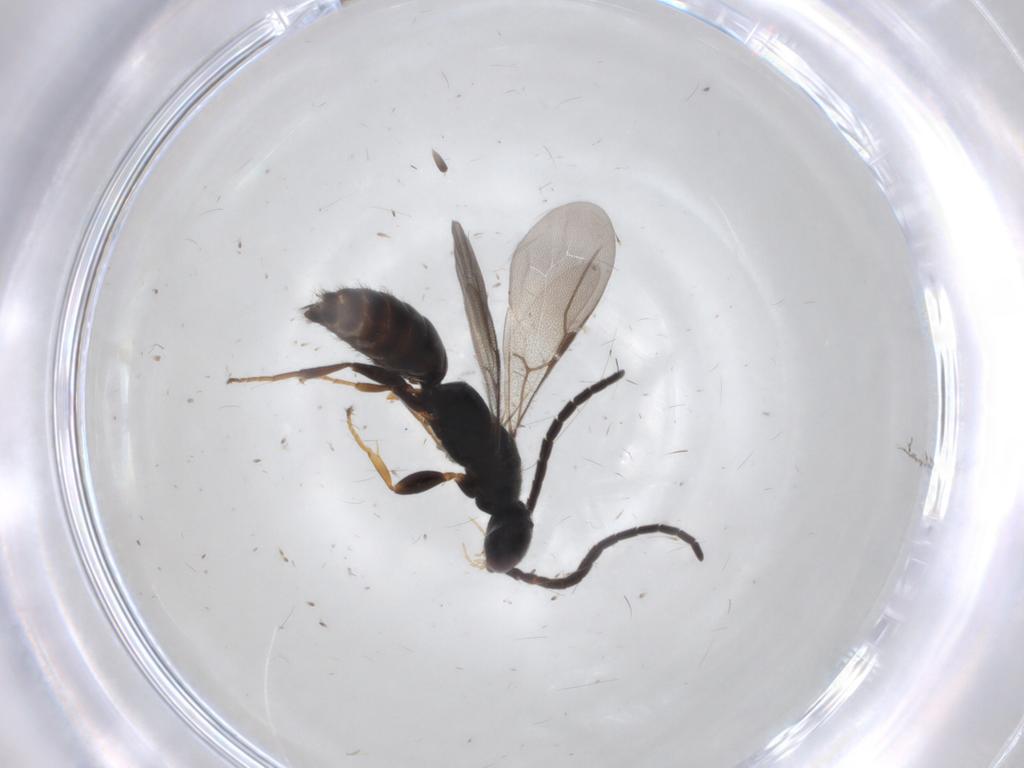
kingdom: Animalia
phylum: Arthropoda
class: Insecta
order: Hymenoptera
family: Bethylidae
